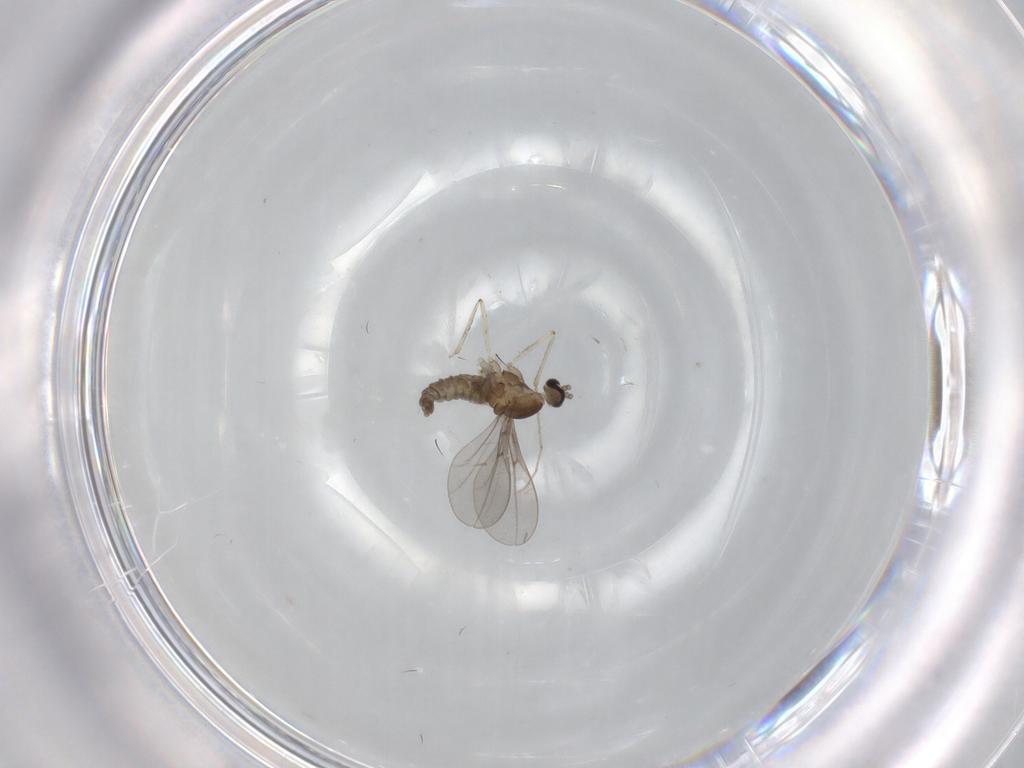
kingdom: Animalia
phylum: Arthropoda
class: Insecta
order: Diptera
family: Cecidomyiidae
